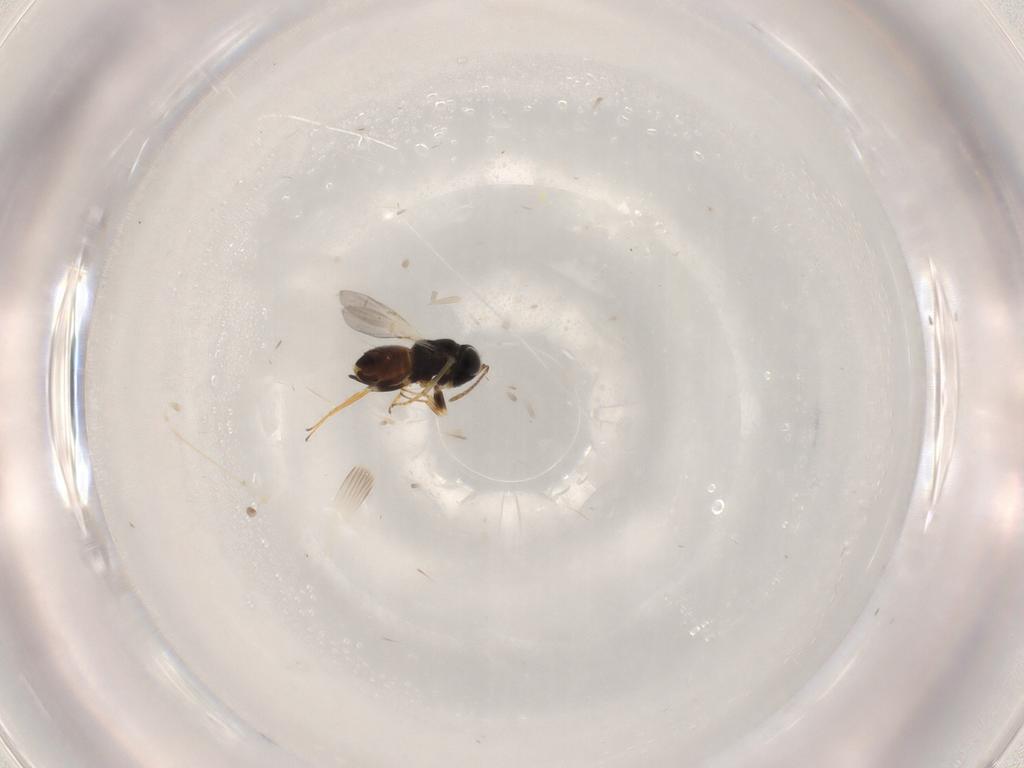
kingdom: Animalia
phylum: Arthropoda
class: Insecta
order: Hymenoptera
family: Encyrtidae
